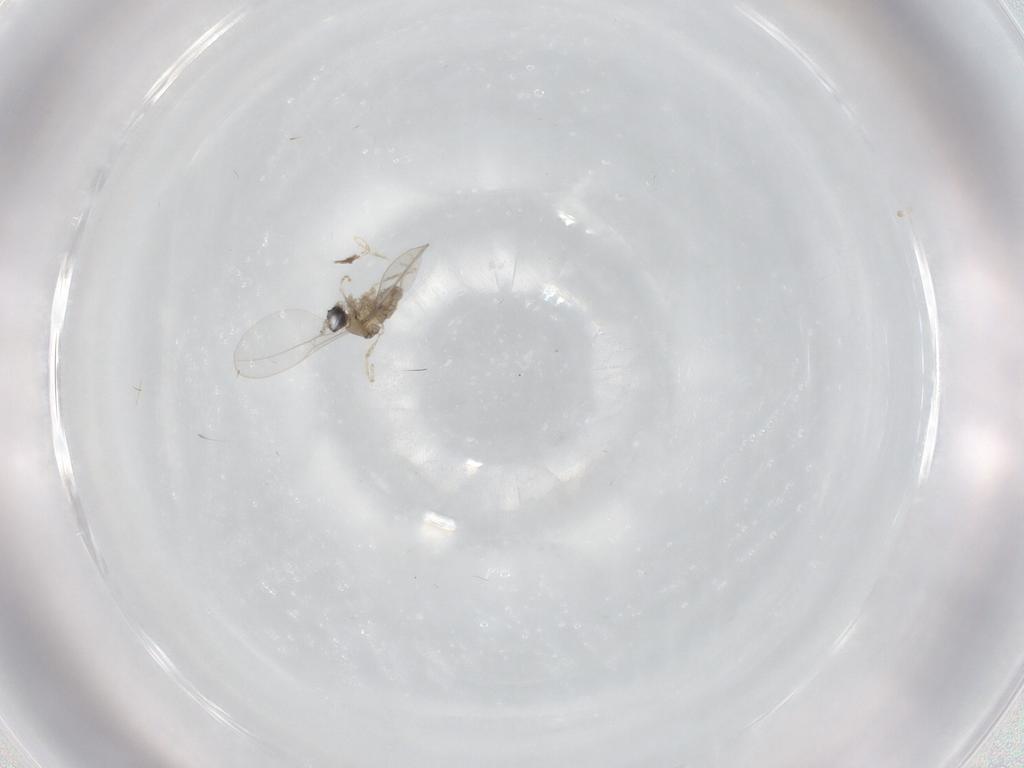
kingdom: Animalia
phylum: Arthropoda
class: Insecta
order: Diptera
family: Cecidomyiidae
